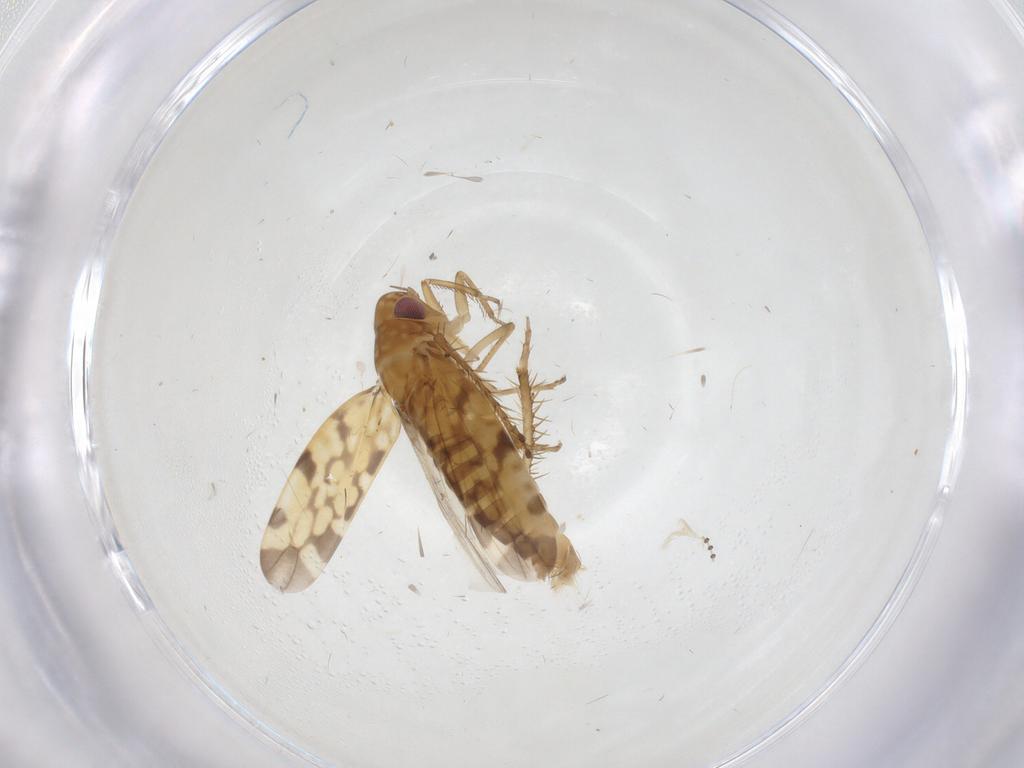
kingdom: Animalia
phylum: Arthropoda
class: Insecta
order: Hemiptera
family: Cicadellidae
